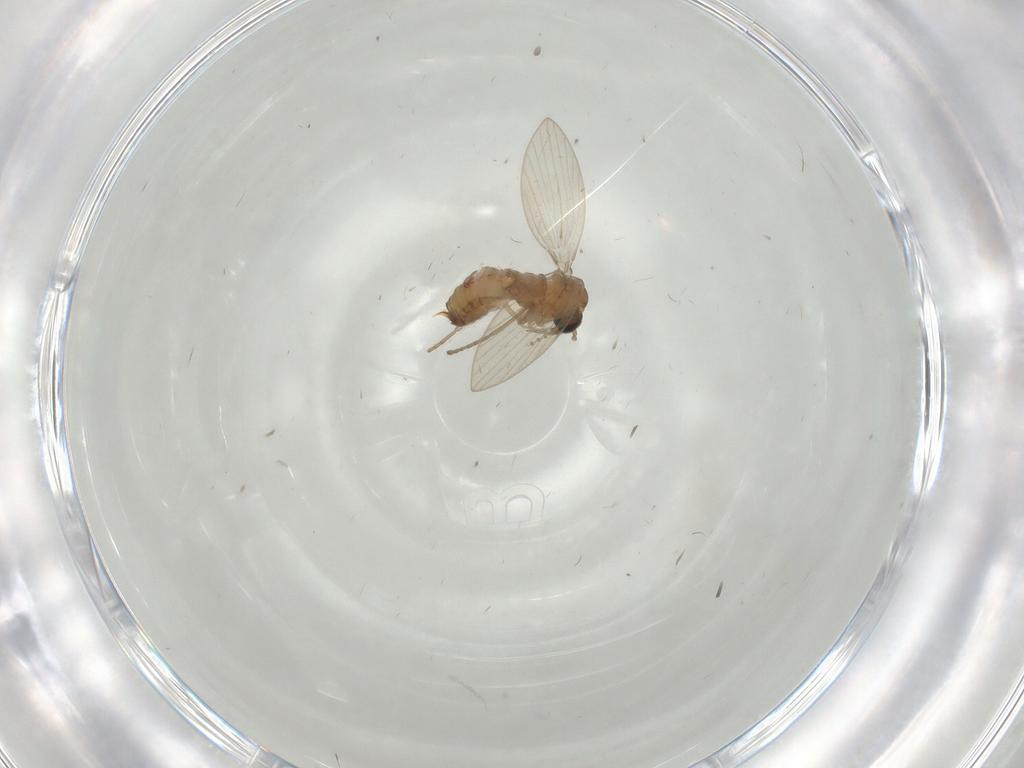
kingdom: Animalia
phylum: Arthropoda
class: Insecta
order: Diptera
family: Psychodidae
